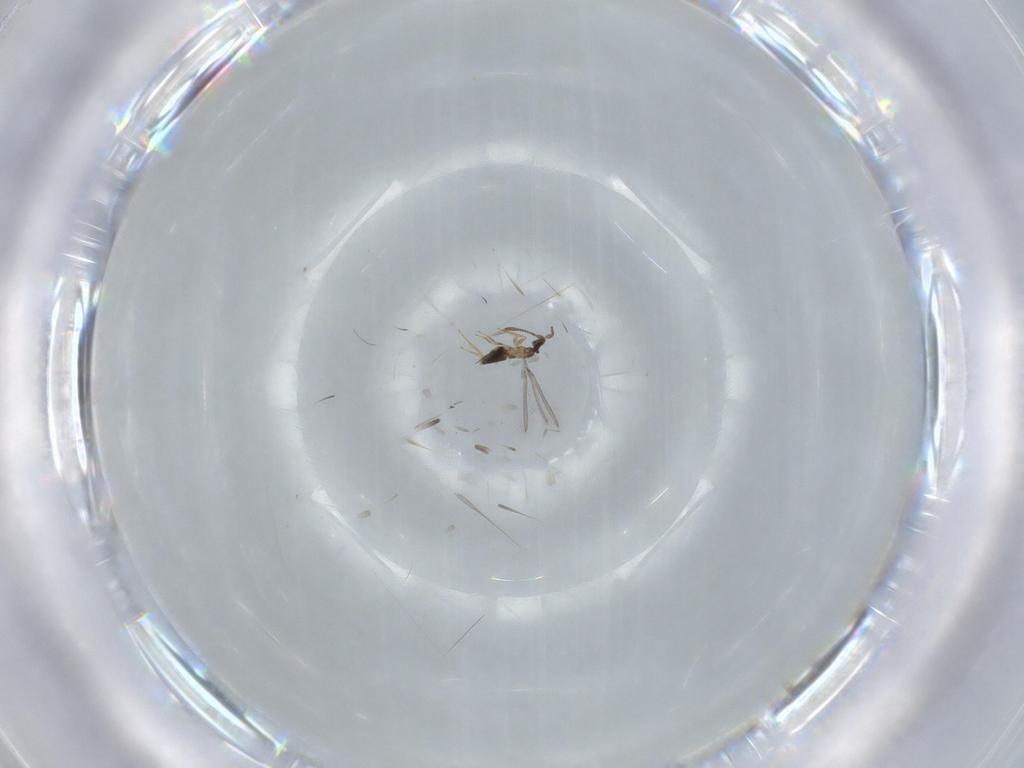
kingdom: Animalia
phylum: Arthropoda
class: Insecta
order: Hymenoptera
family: Mymaridae
